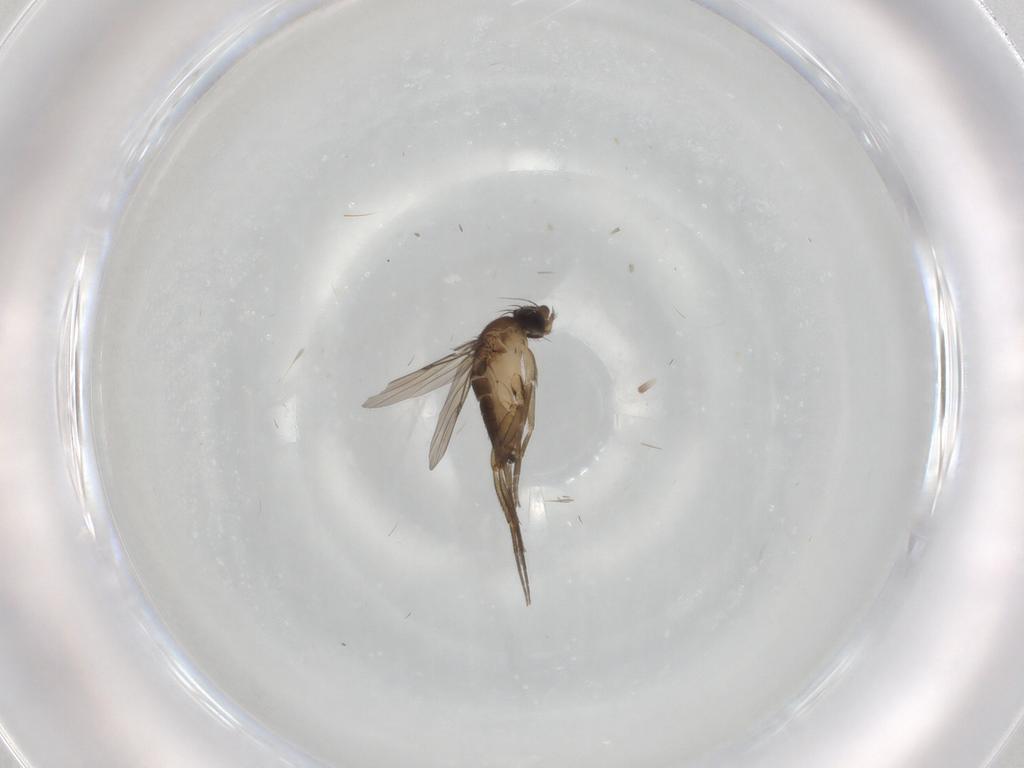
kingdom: Animalia
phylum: Arthropoda
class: Insecta
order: Diptera
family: Phoridae
